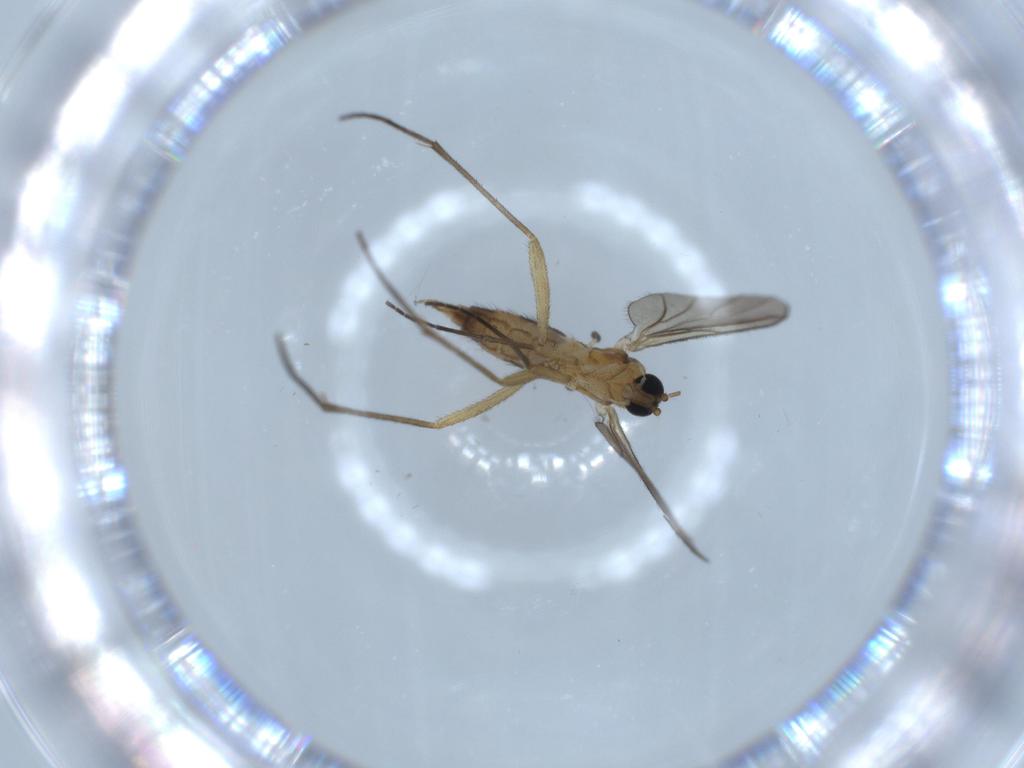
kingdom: Animalia
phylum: Arthropoda
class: Insecta
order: Diptera
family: Sciaridae
